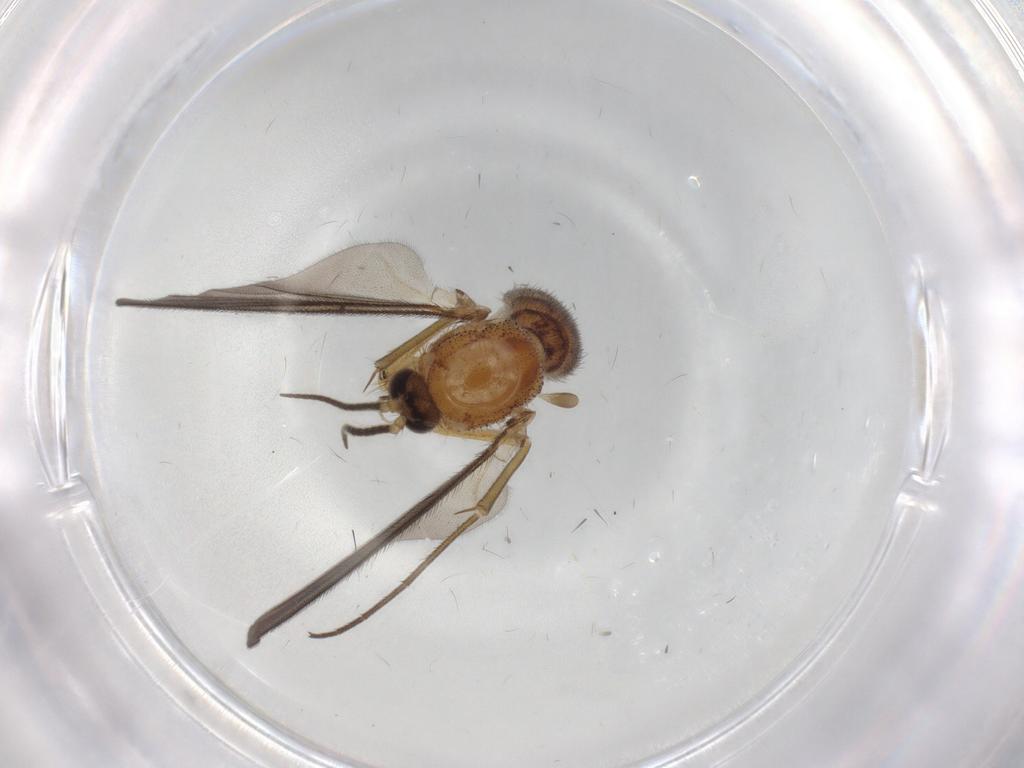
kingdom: Animalia
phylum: Arthropoda
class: Insecta
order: Diptera
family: Mycetophilidae
